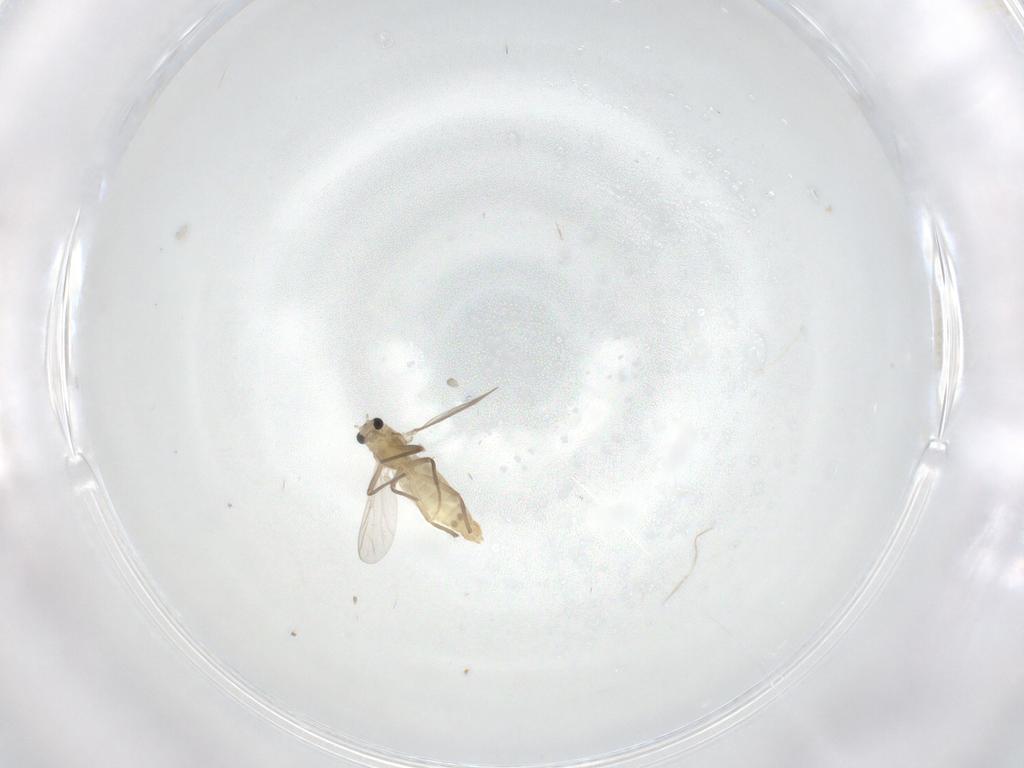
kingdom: Animalia
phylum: Arthropoda
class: Insecta
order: Diptera
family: Chironomidae
